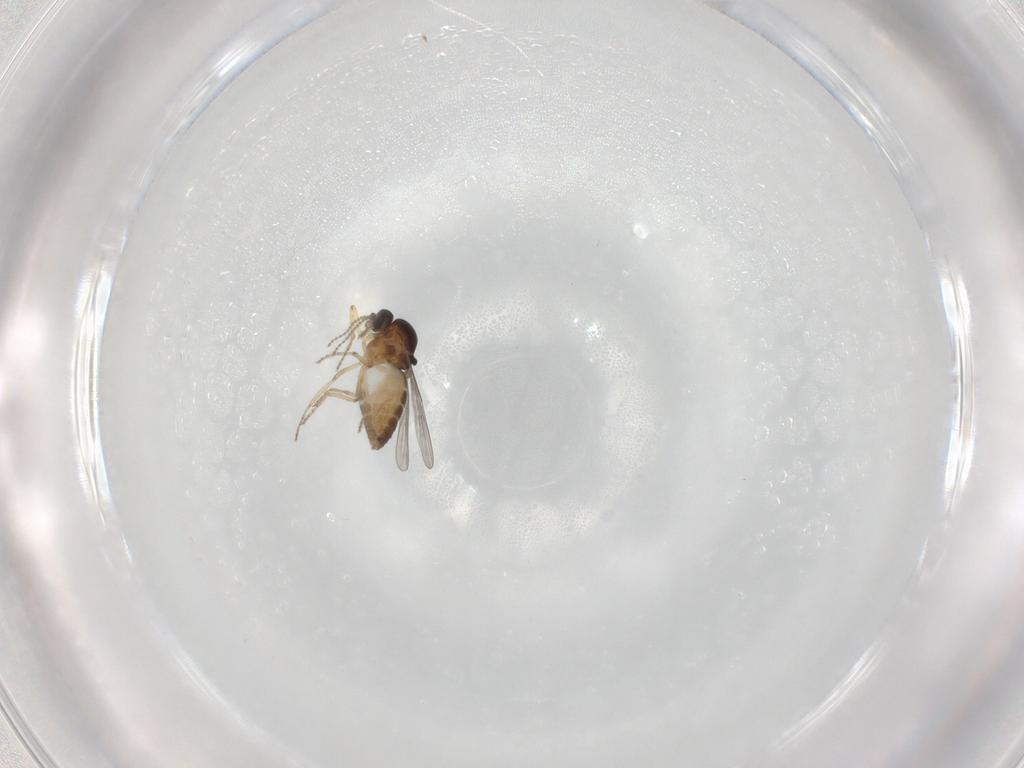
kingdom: Animalia
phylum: Arthropoda
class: Insecta
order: Diptera
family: Ceratopogonidae
